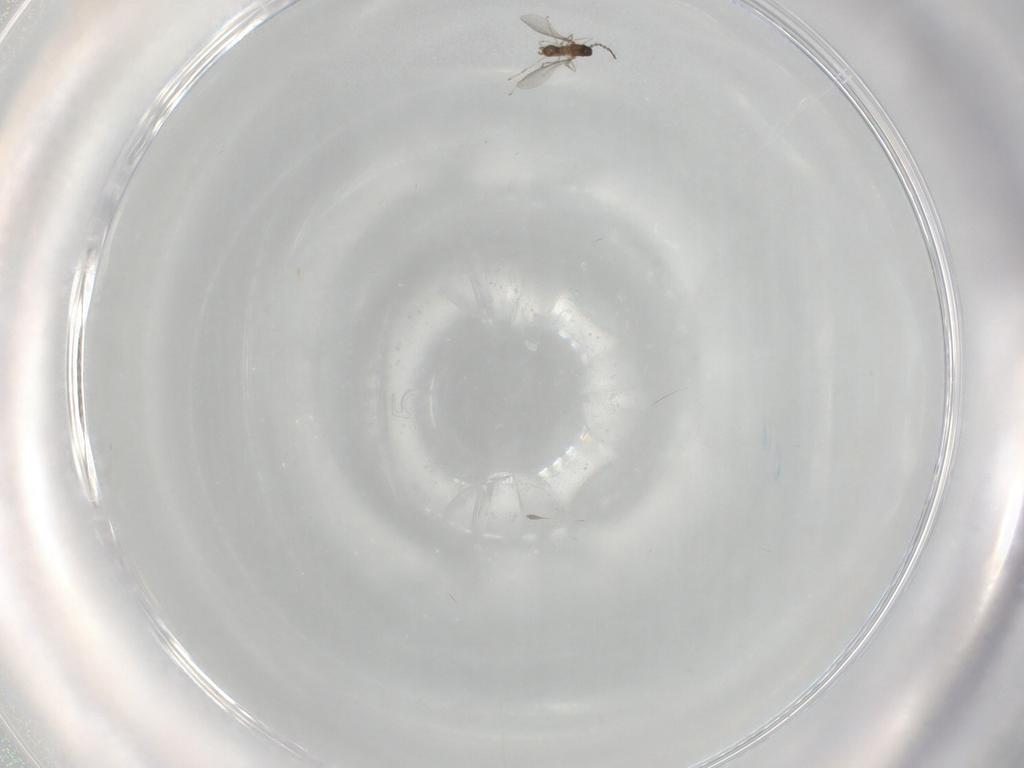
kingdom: Animalia
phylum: Arthropoda
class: Insecta
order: Diptera
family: Cecidomyiidae
